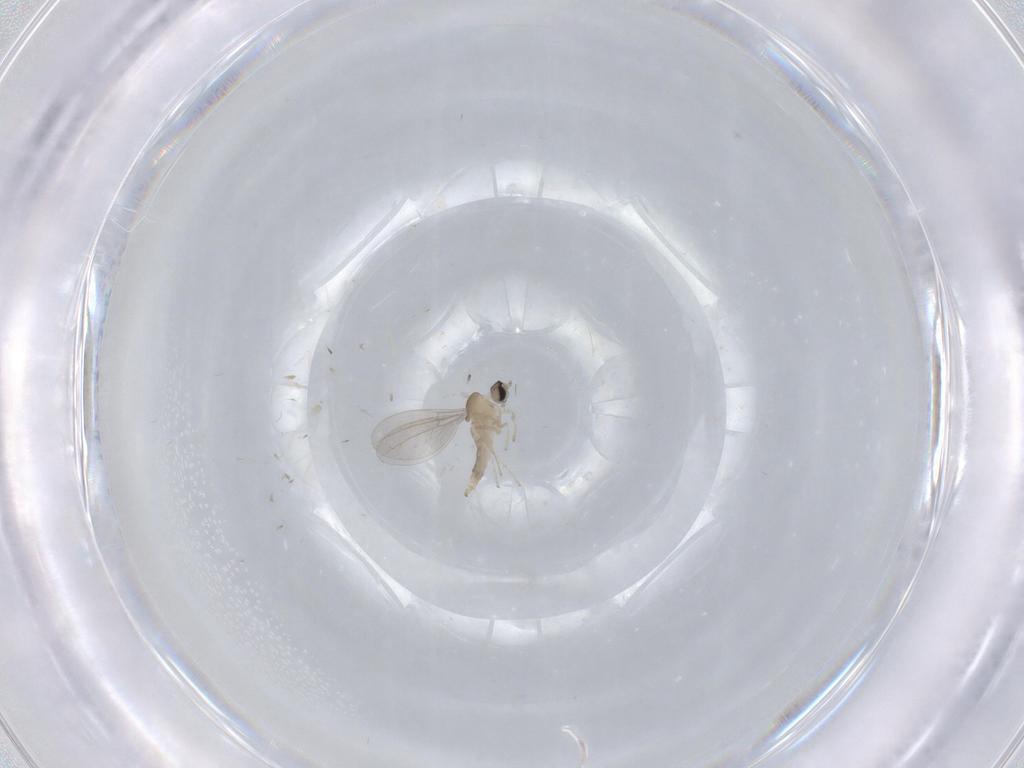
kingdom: Animalia
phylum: Arthropoda
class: Insecta
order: Diptera
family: Cecidomyiidae
